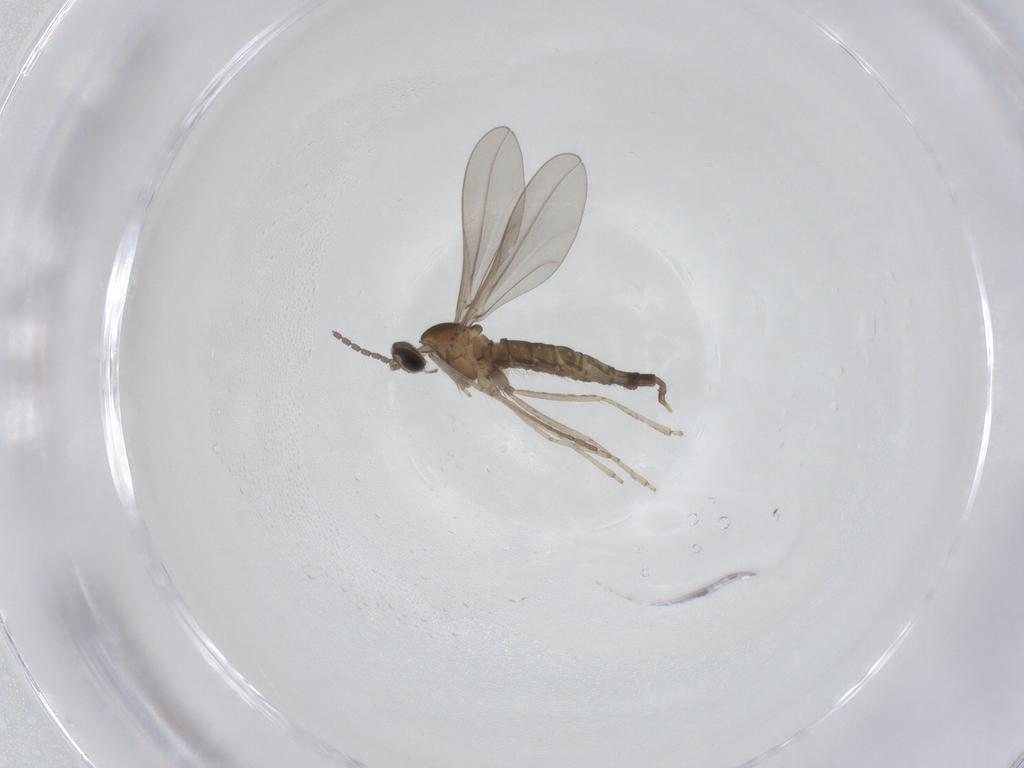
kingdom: Animalia
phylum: Arthropoda
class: Insecta
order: Diptera
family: Cecidomyiidae
